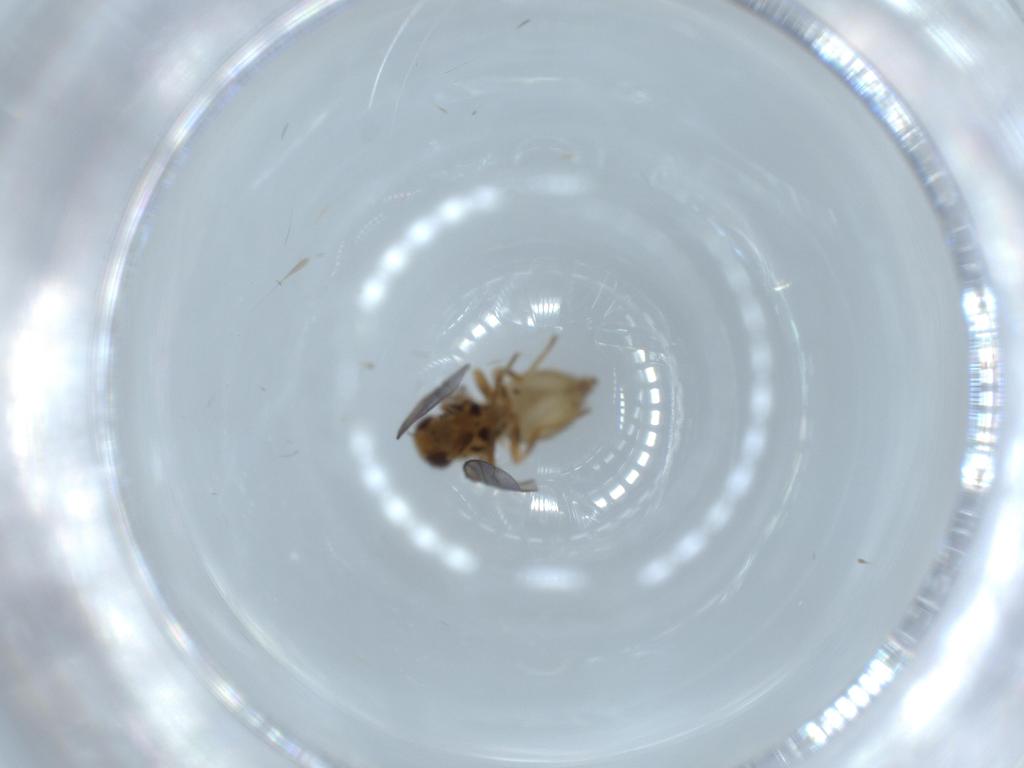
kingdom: Animalia
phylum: Arthropoda
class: Insecta
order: Diptera
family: Chloropidae
